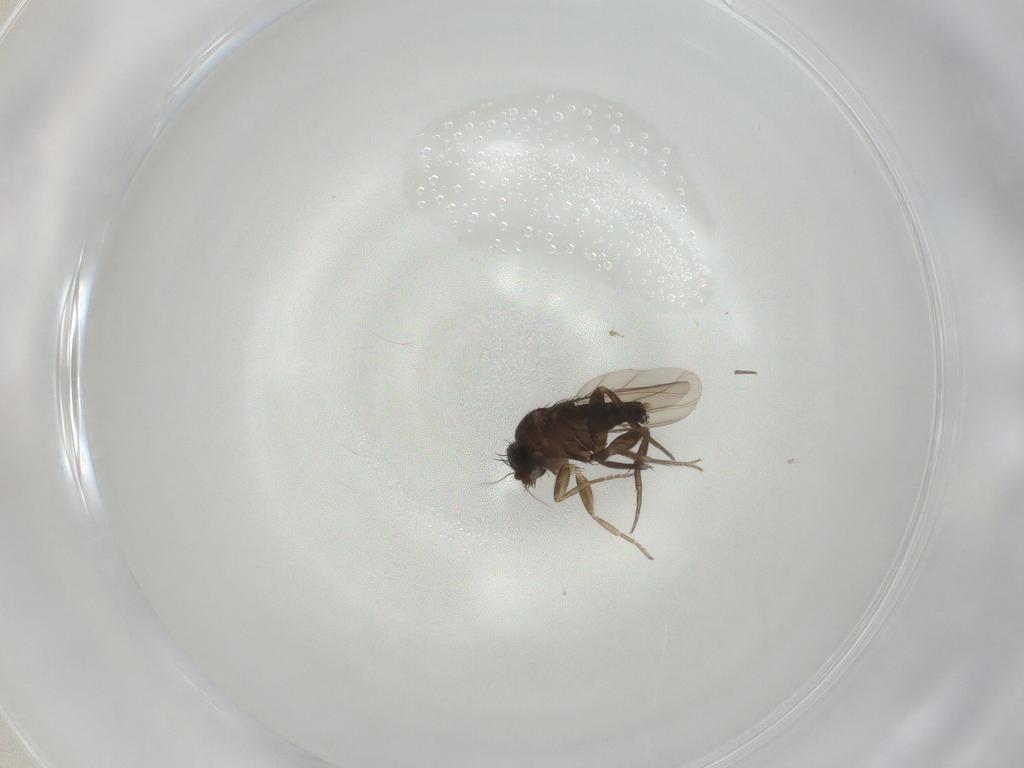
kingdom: Animalia
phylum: Arthropoda
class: Insecta
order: Diptera
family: Phoridae
